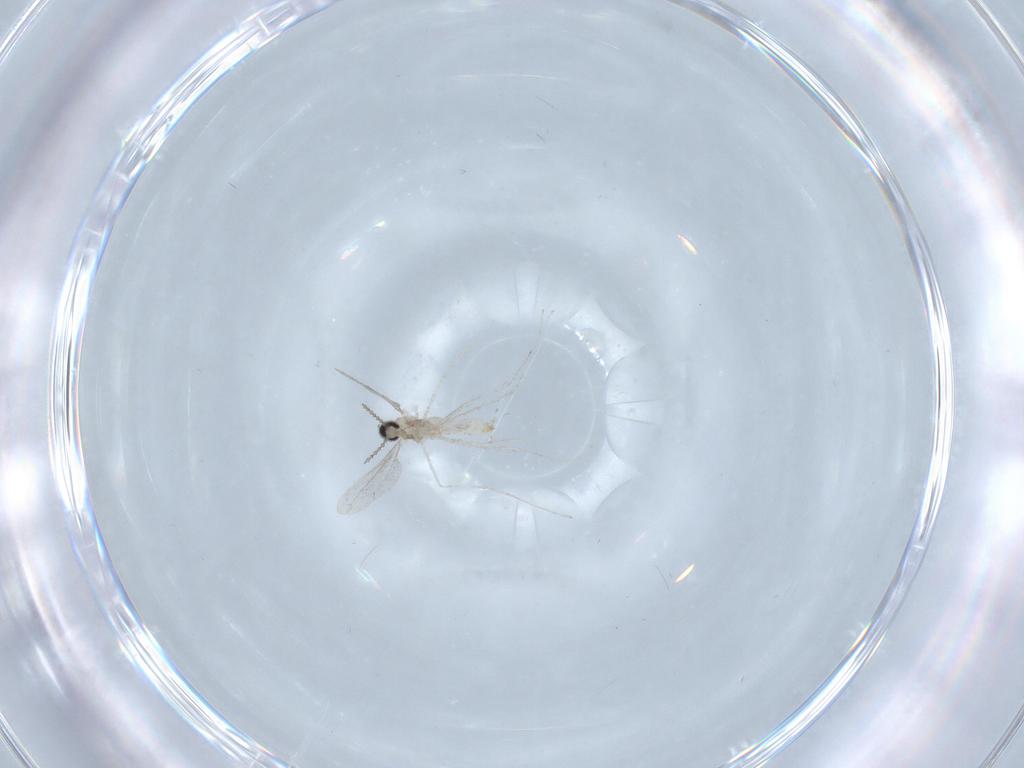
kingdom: Animalia
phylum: Arthropoda
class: Insecta
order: Diptera
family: Cecidomyiidae
